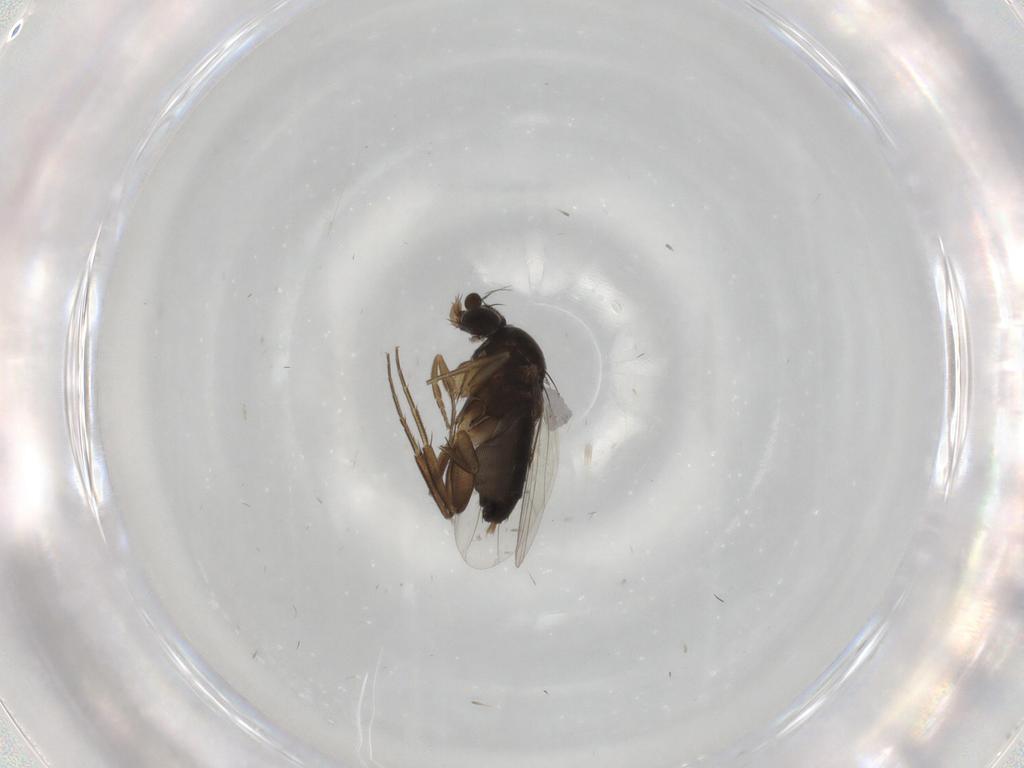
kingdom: Animalia
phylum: Arthropoda
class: Insecta
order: Diptera
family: Phoridae
